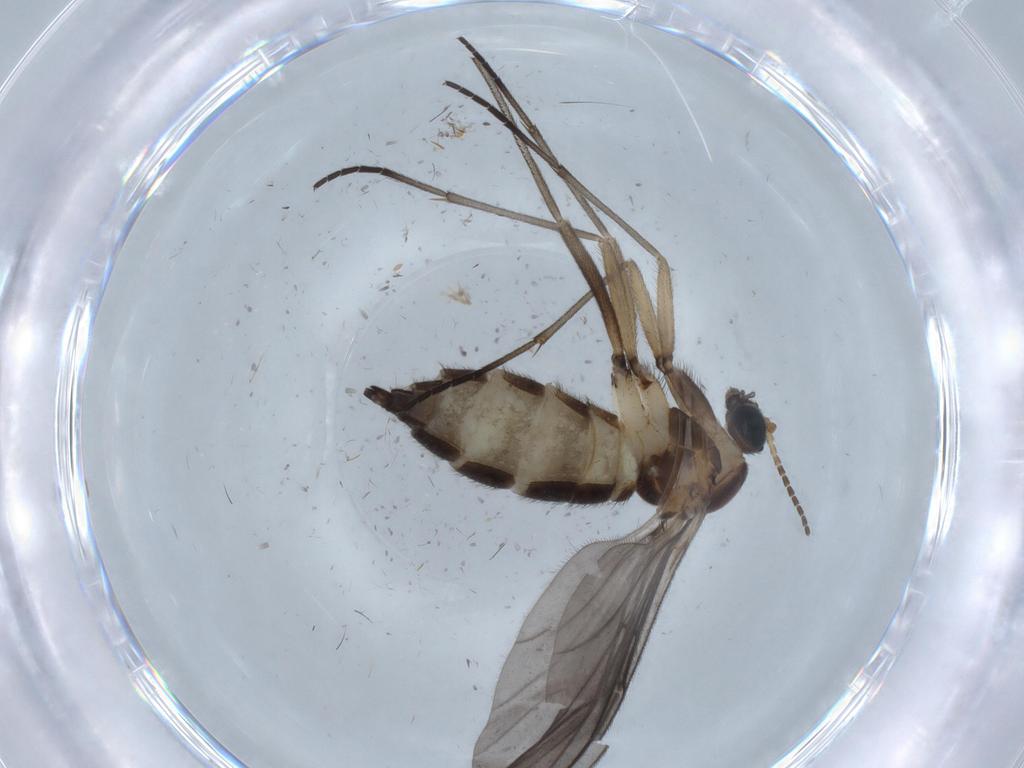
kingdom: Animalia
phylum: Arthropoda
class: Insecta
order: Diptera
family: Sciaridae
